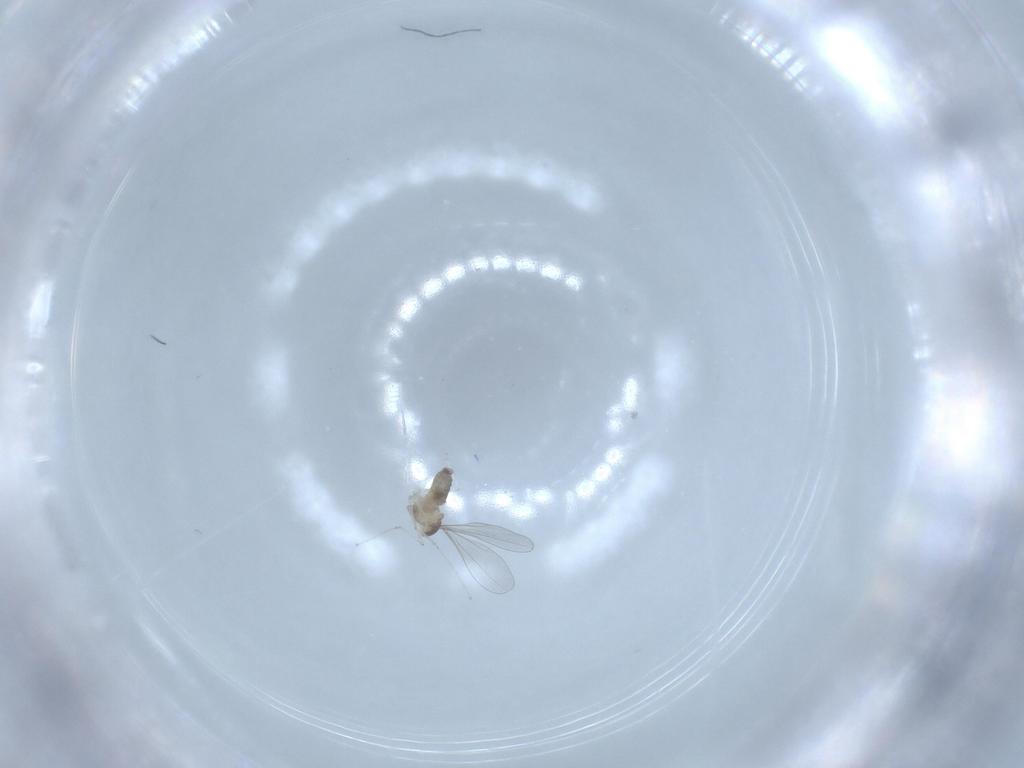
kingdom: Animalia
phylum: Arthropoda
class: Insecta
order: Diptera
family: Cecidomyiidae
